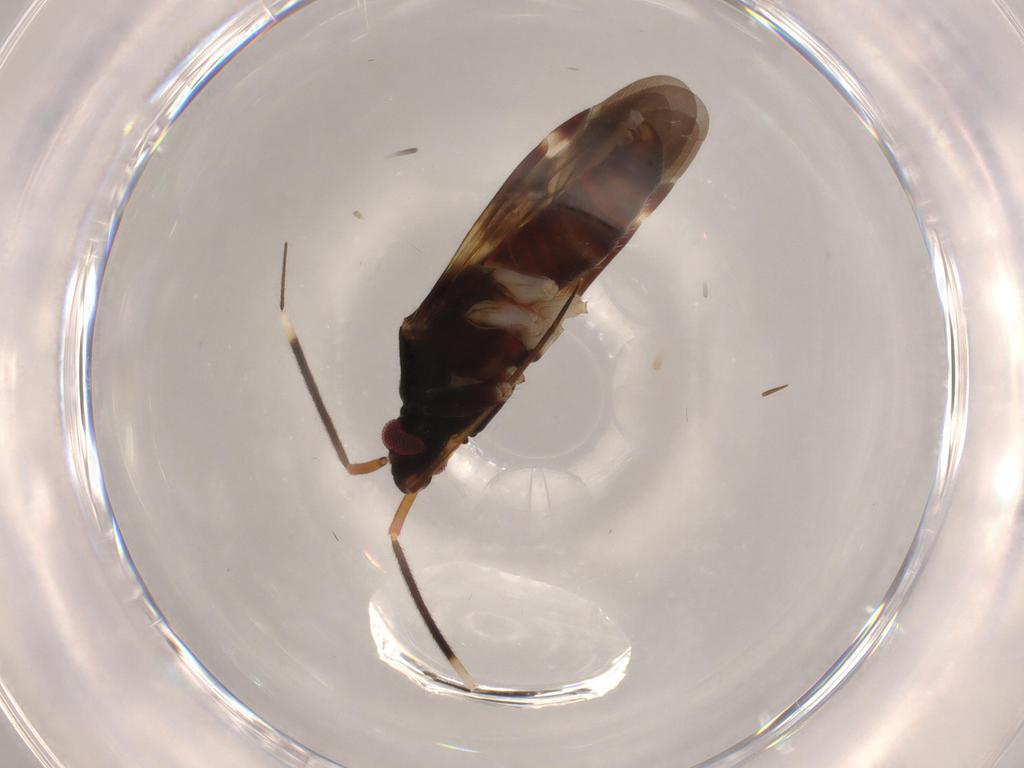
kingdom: Animalia
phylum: Arthropoda
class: Insecta
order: Hemiptera
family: Miridae
